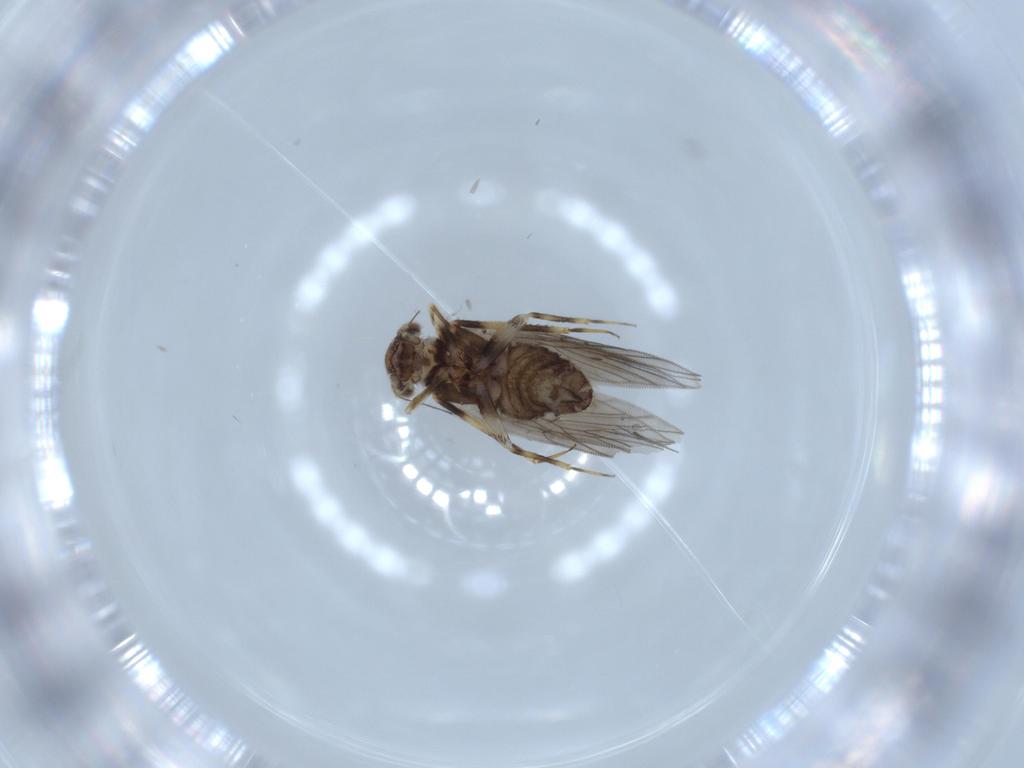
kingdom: Animalia
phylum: Arthropoda
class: Insecta
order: Psocodea
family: Lepidopsocidae
